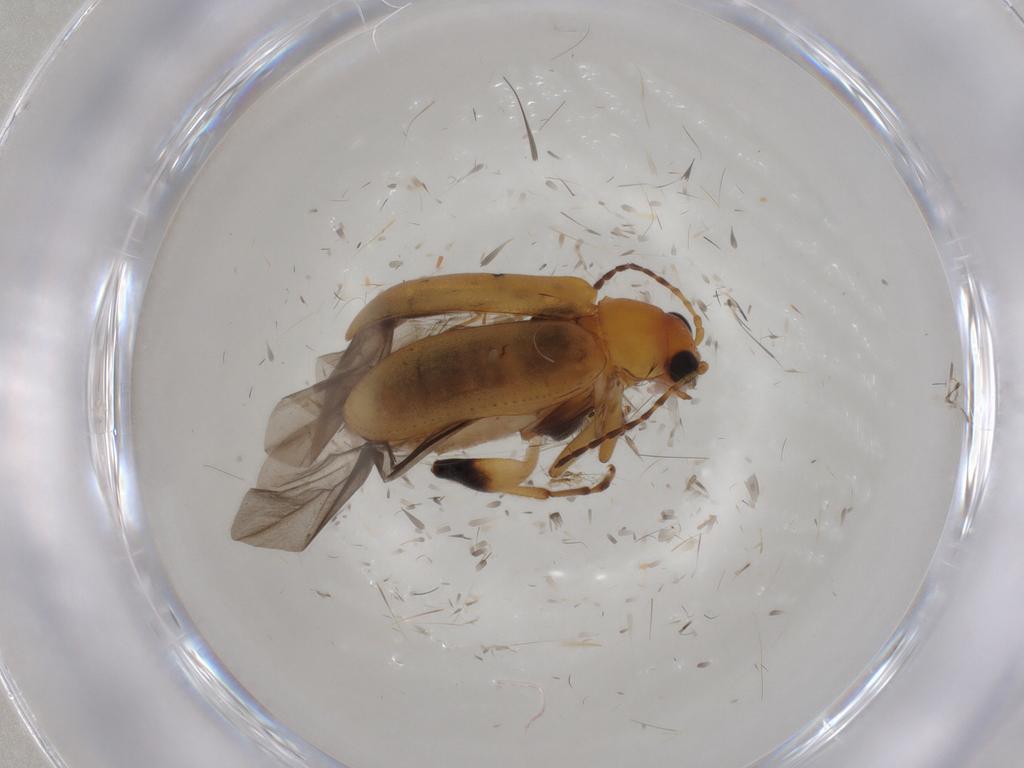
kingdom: Animalia
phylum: Arthropoda
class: Insecta
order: Coleoptera
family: Chrysomelidae
